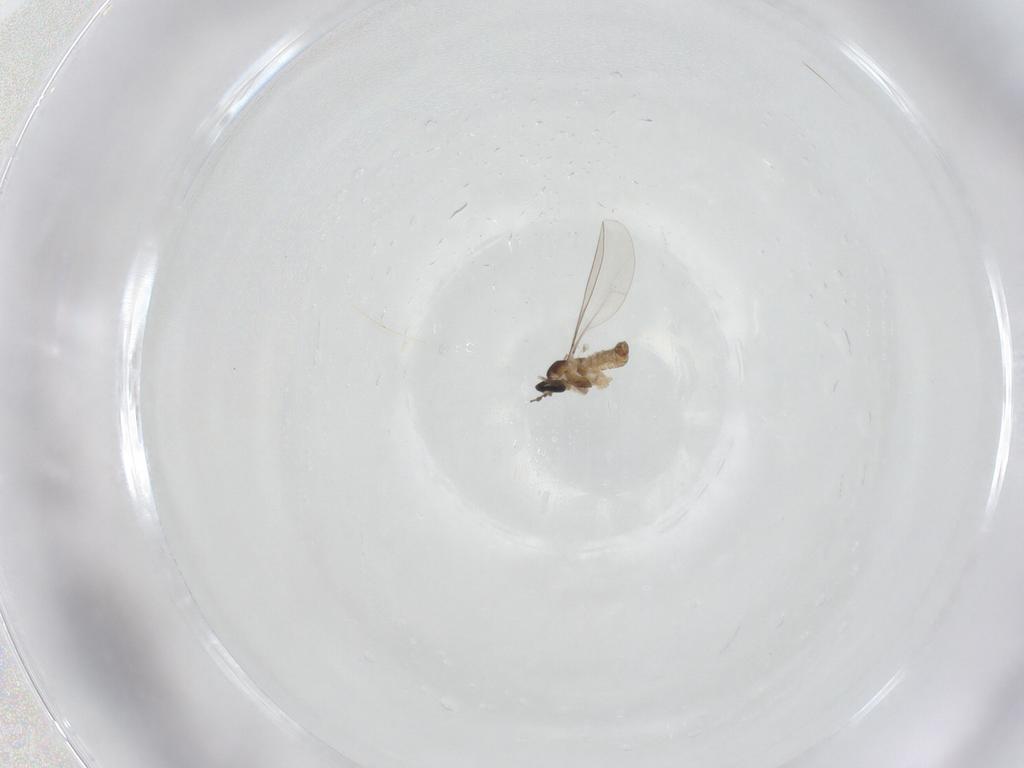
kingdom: Animalia
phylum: Arthropoda
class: Insecta
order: Diptera
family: Cecidomyiidae
